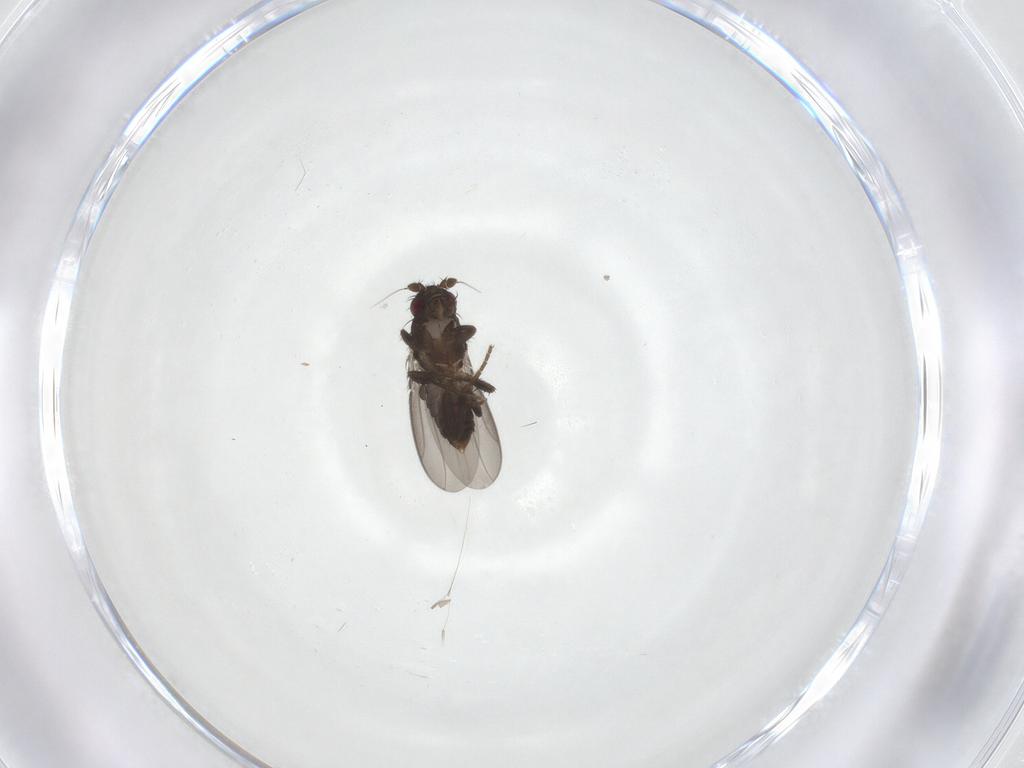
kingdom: Animalia
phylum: Arthropoda
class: Insecta
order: Diptera
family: Sphaeroceridae
